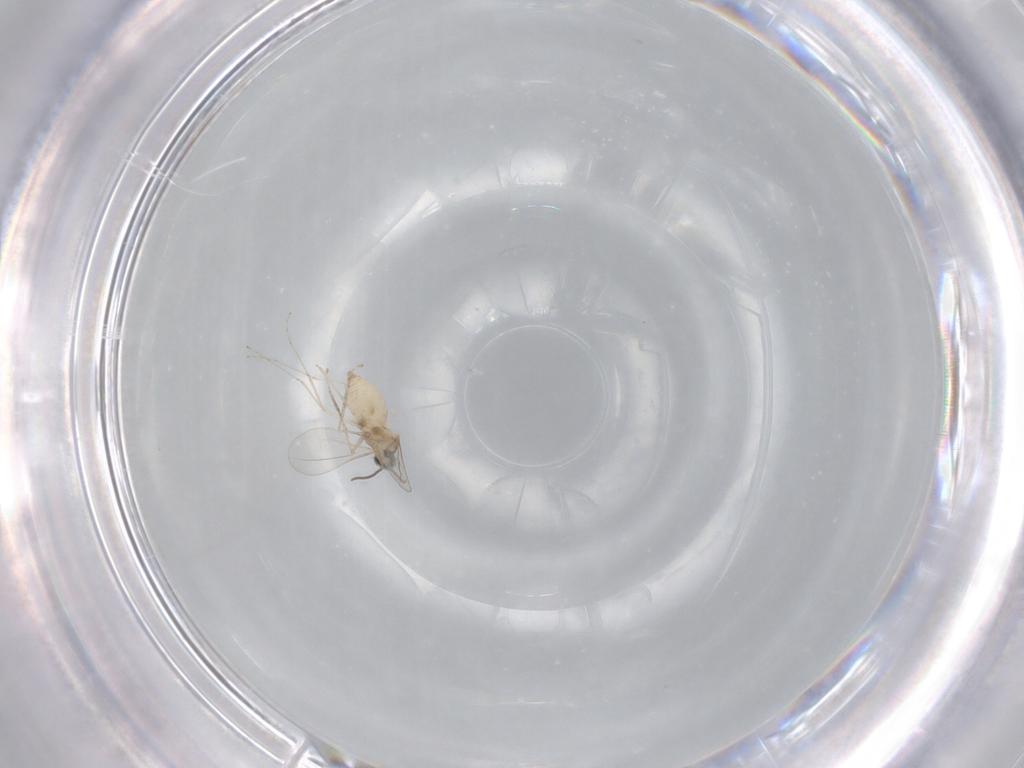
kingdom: Animalia
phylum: Arthropoda
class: Insecta
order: Diptera
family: Cecidomyiidae
